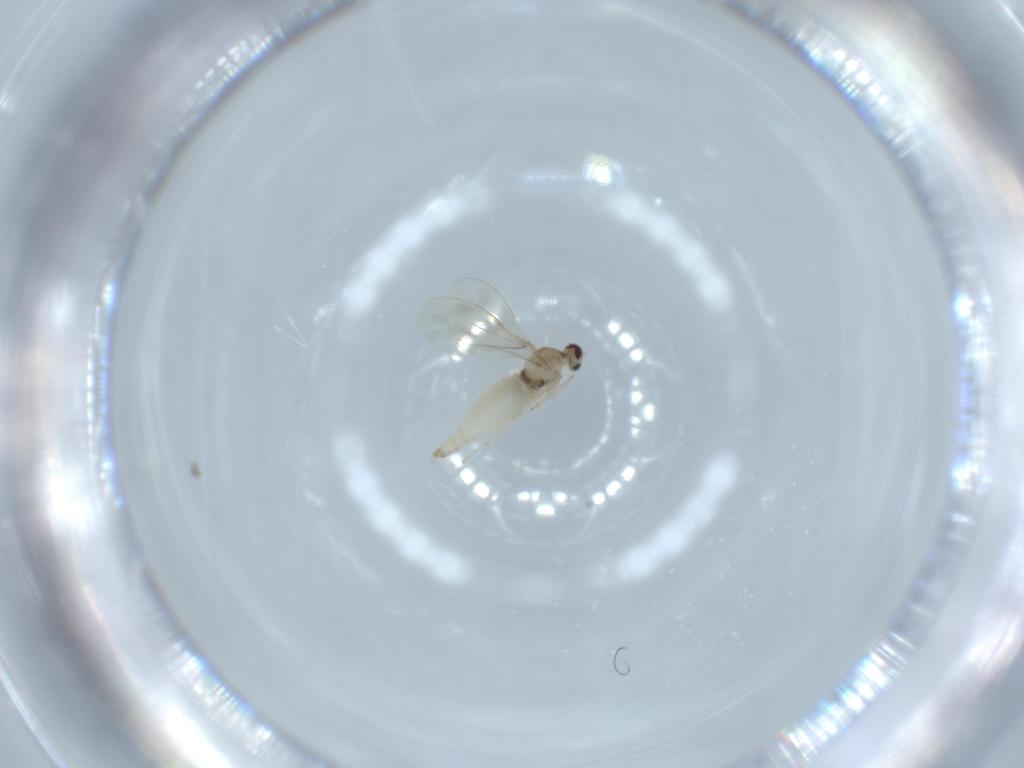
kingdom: Animalia
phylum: Arthropoda
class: Insecta
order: Diptera
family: Cecidomyiidae
